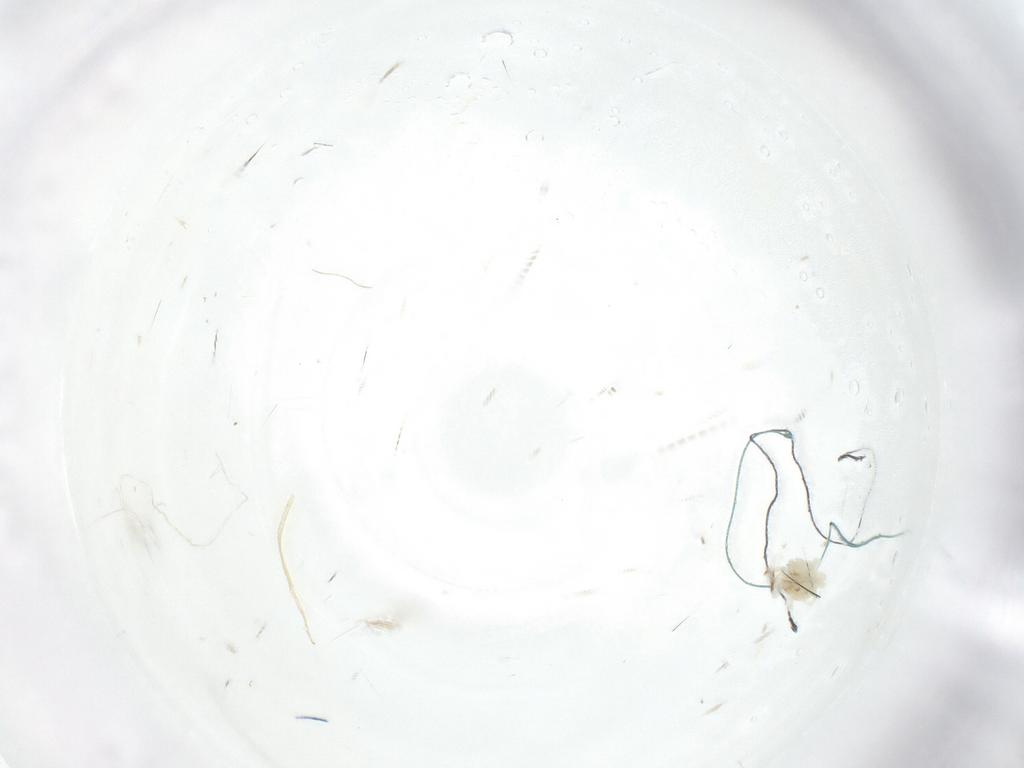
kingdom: Animalia
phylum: Arthropoda
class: Arachnida
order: Trombidiformes
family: Anystidae
